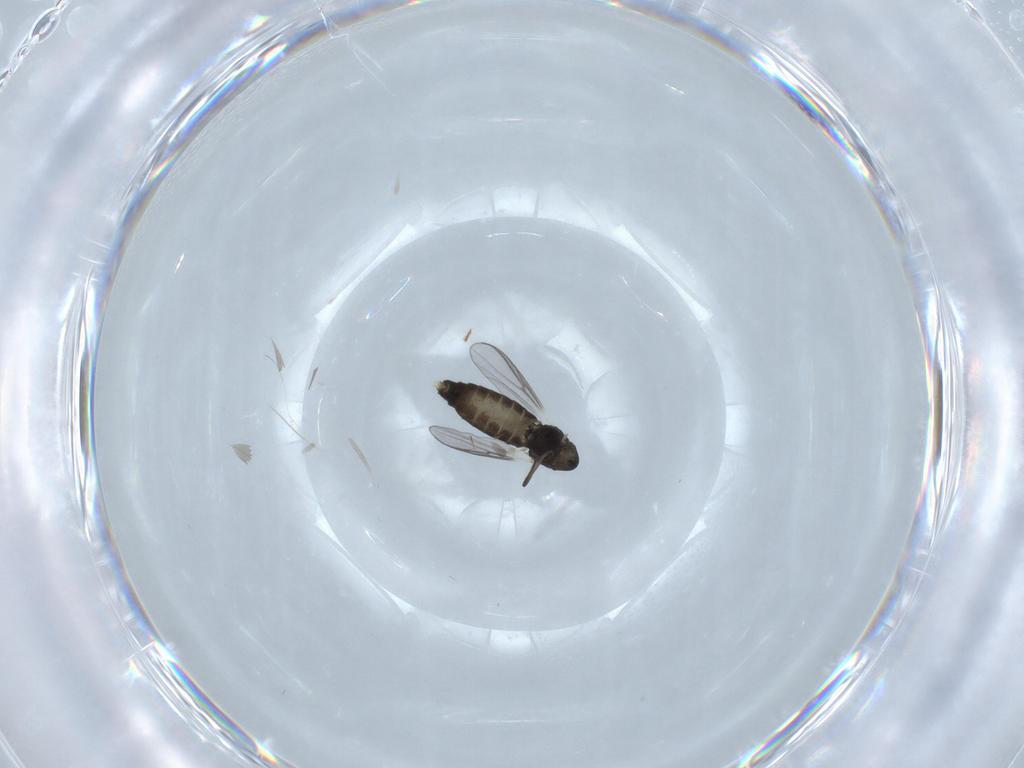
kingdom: Animalia
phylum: Arthropoda
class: Insecta
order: Diptera
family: Chironomidae
